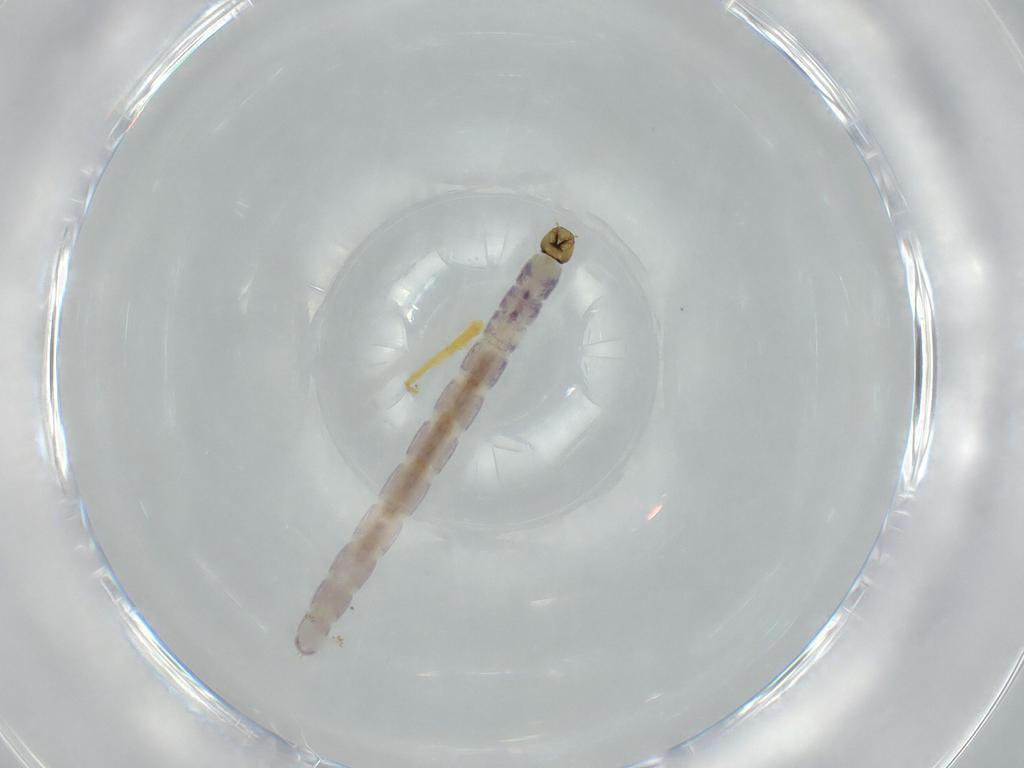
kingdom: Animalia
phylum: Arthropoda
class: Insecta
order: Diptera
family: Chironomidae
